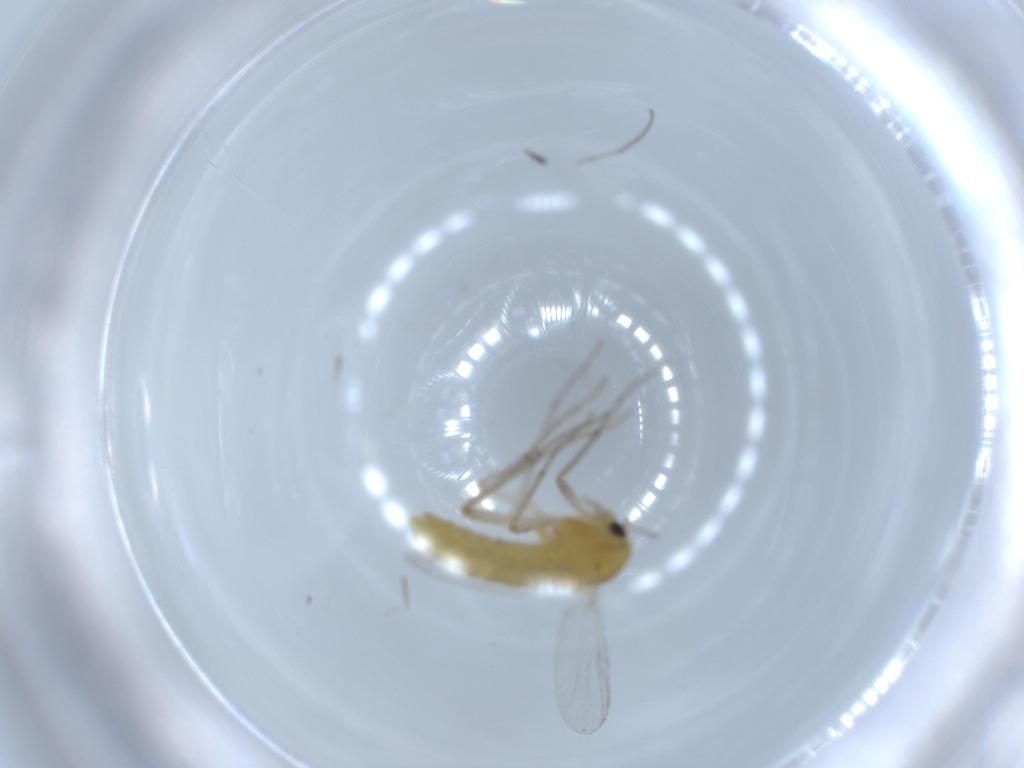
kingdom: Animalia
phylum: Arthropoda
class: Insecta
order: Diptera
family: Chironomidae
